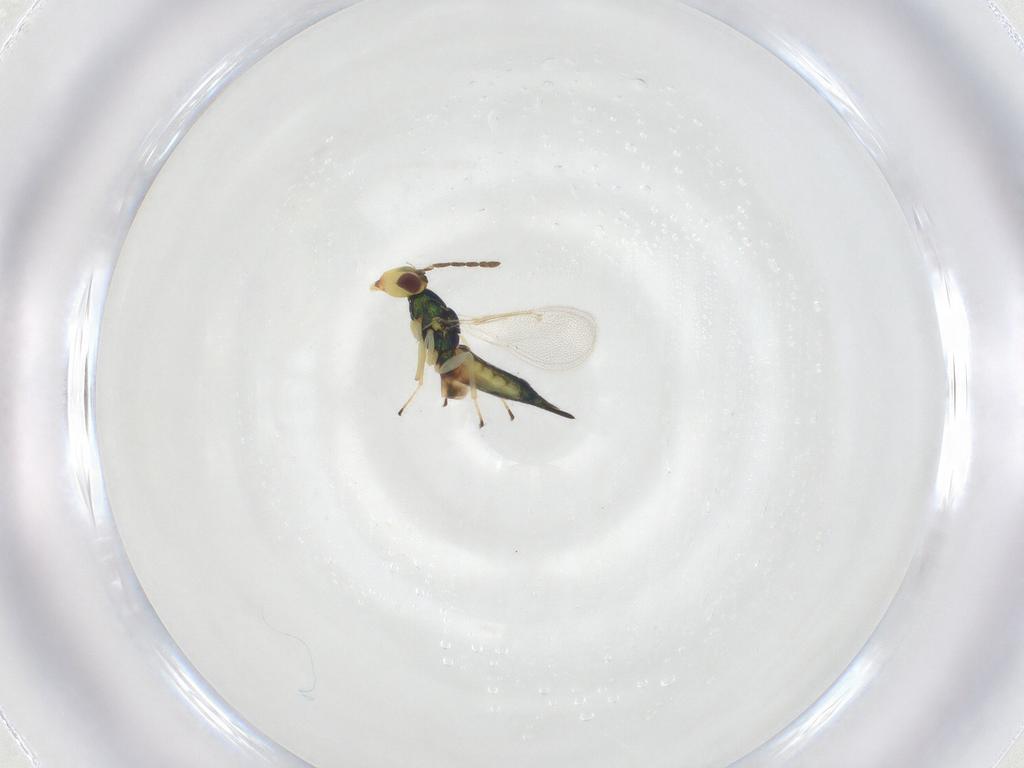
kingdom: Animalia
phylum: Arthropoda
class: Insecta
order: Hymenoptera
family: Eulophidae
